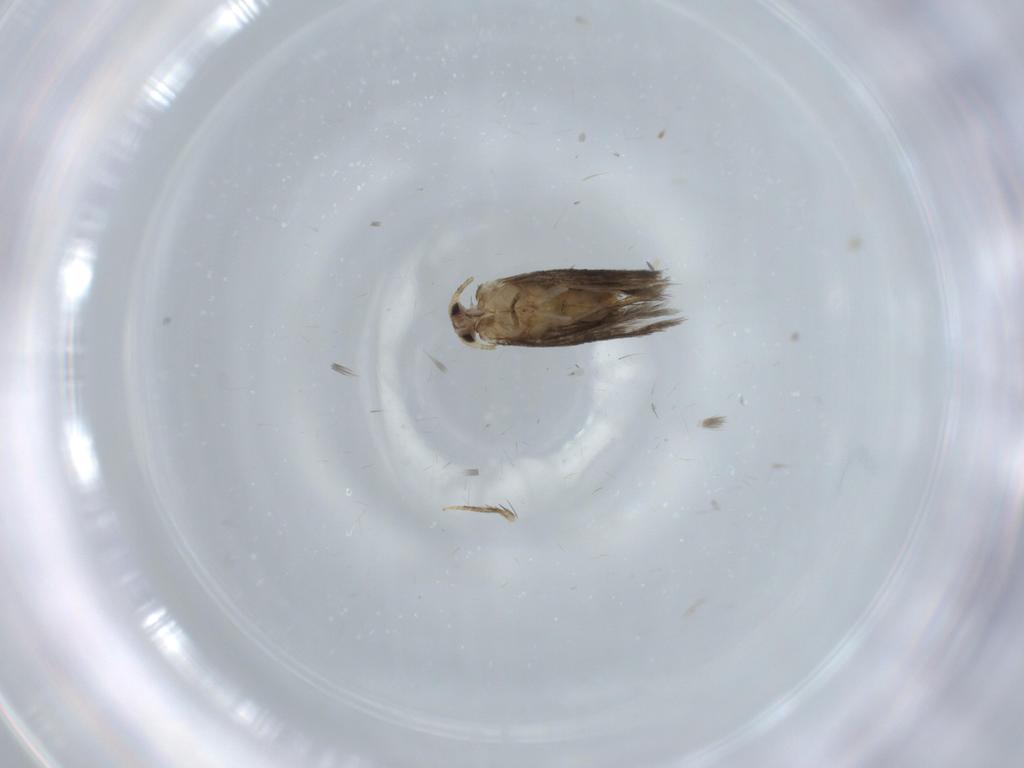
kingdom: Animalia
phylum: Arthropoda
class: Insecta
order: Lepidoptera
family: Nepticulidae
